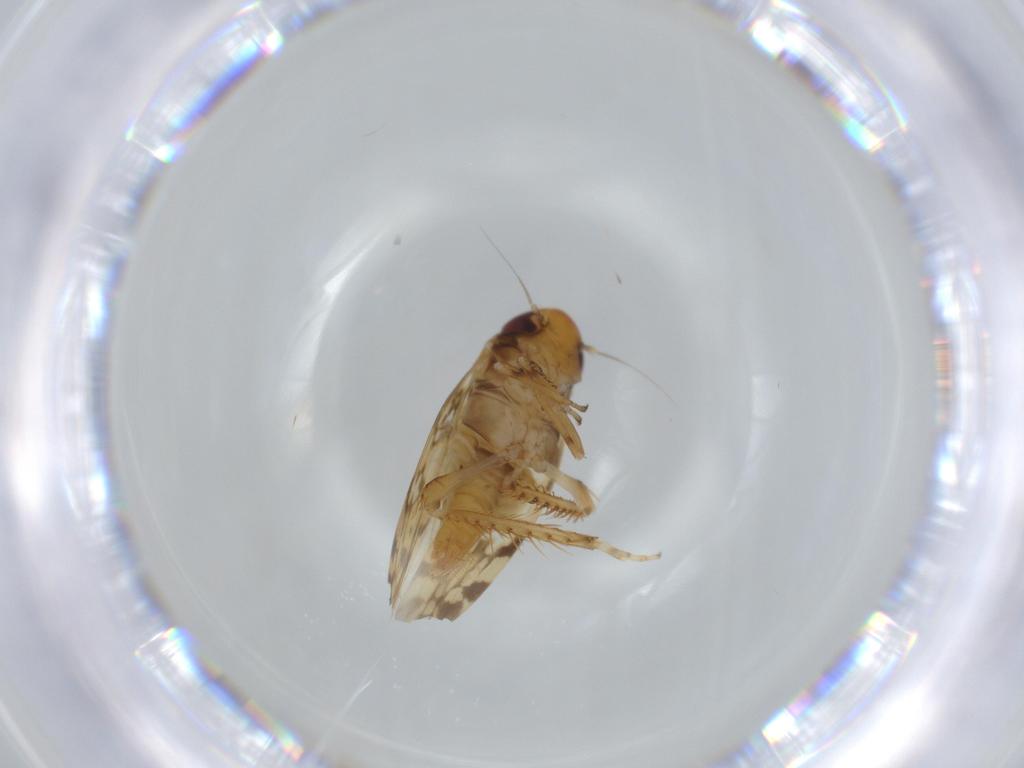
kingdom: Animalia
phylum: Arthropoda
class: Insecta
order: Hemiptera
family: Cicadellidae
